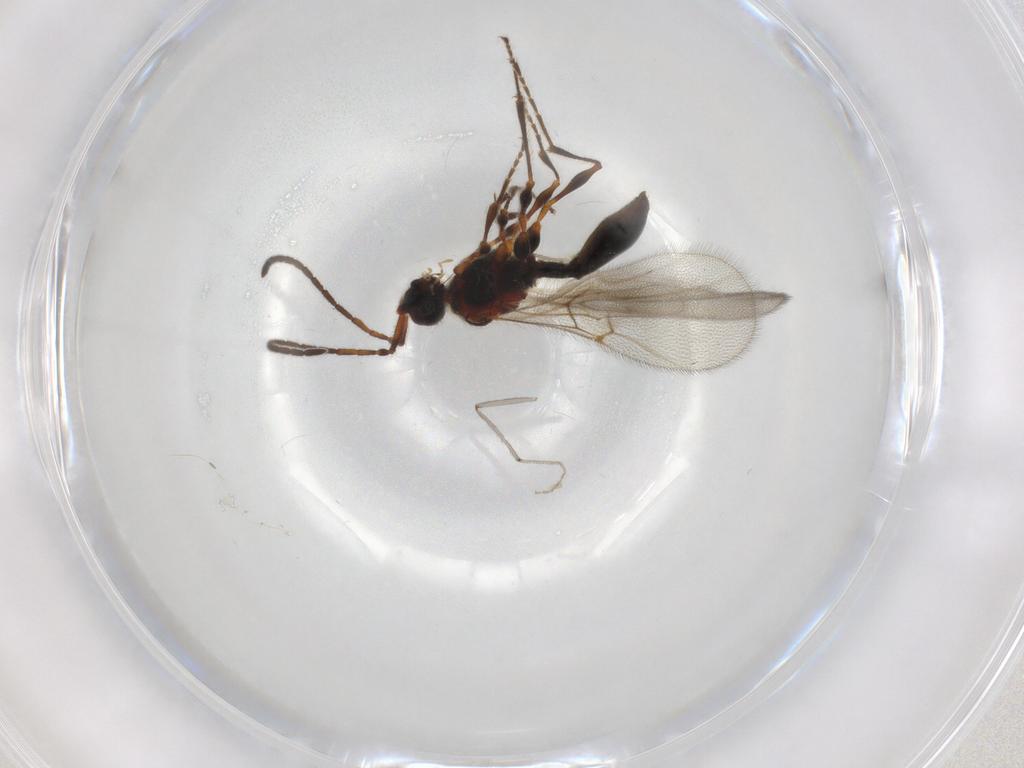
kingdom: Animalia
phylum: Arthropoda
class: Insecta
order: Hymenoptera
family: Diapriidae
